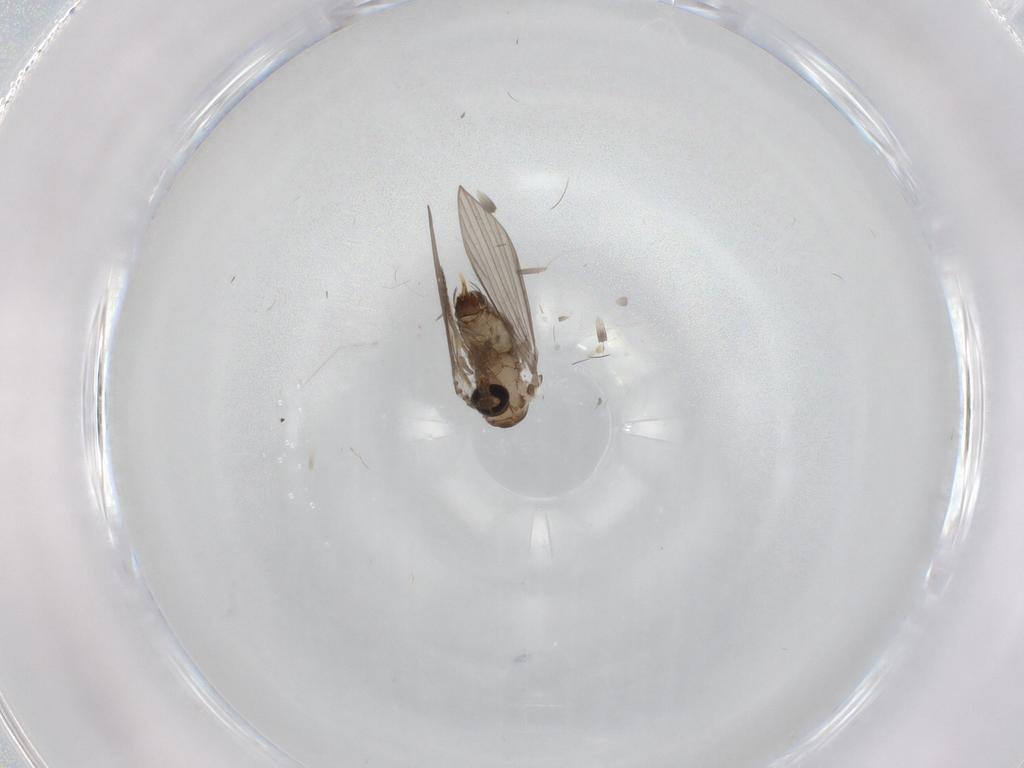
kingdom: Animalia
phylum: Arthropoda
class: Insecta
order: Diptera
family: Psychodidae
